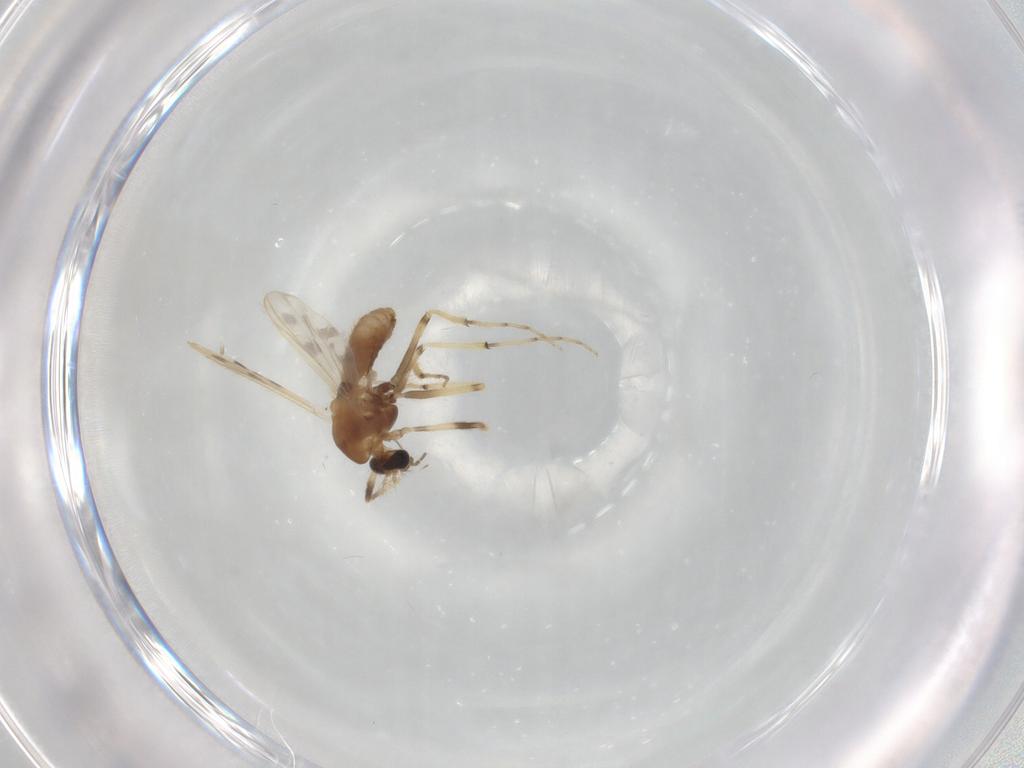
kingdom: Animalia
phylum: Arthropoda
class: Insecta
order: Diptera
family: Chironomidae
